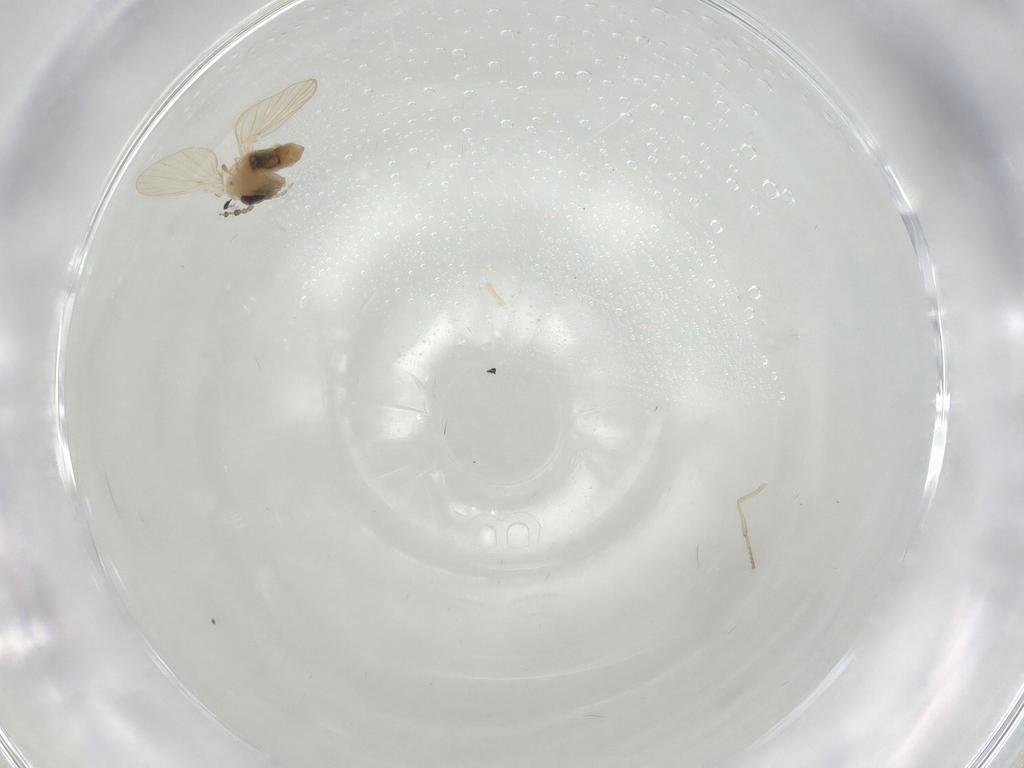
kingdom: Animalia
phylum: Arthropoda
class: Insecta
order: Diptera
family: Psychodidae
